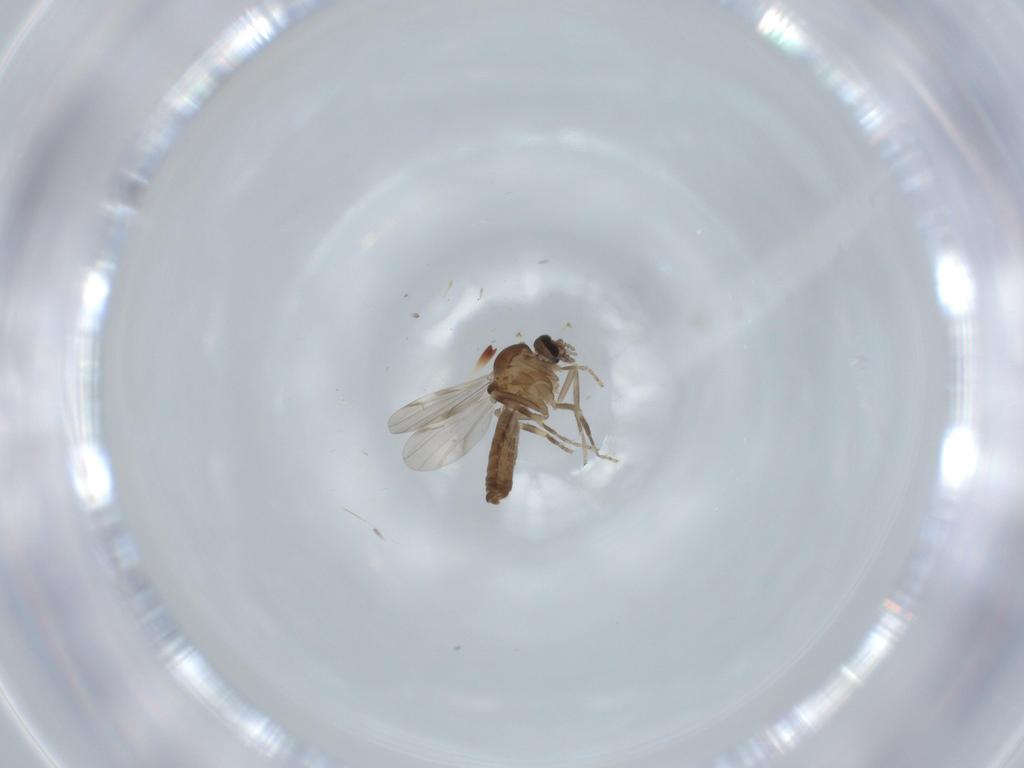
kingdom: Animalia
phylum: Arthropoda
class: Insecta
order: Diptera
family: Ceratopogonidae
